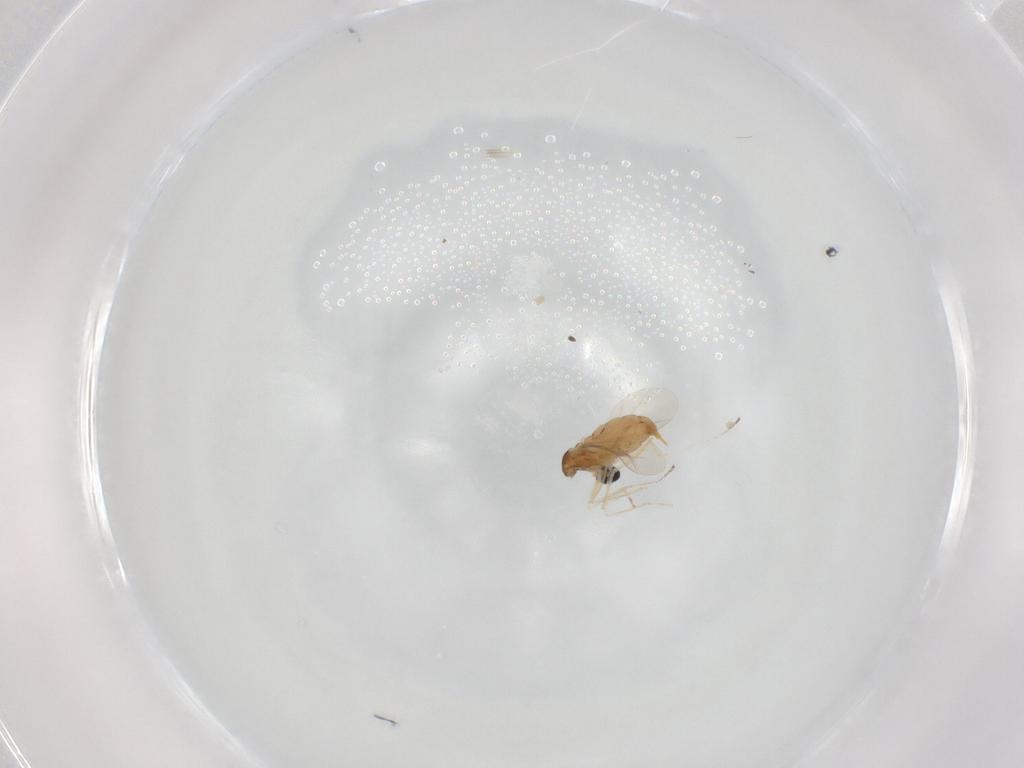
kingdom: Animalia
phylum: Arthropoda
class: Insecta
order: Diptera
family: Cecidomyiidae
